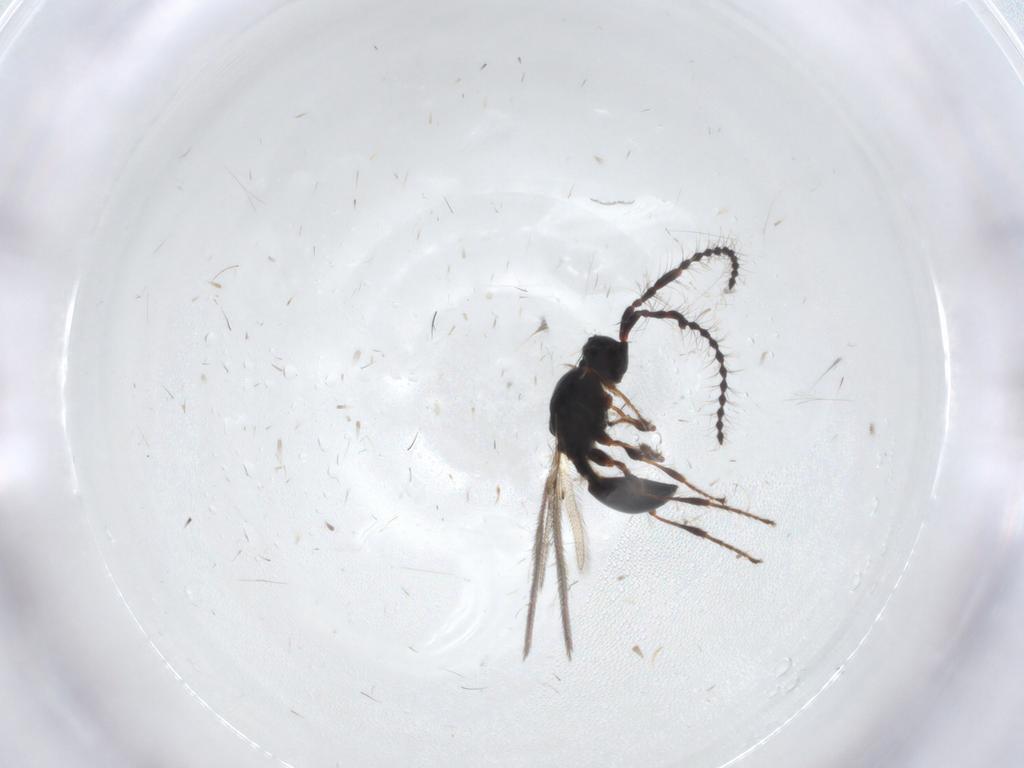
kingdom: Animalia
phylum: Arthropoda
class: Insecta
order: Hymenoptera
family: Diapriidae
